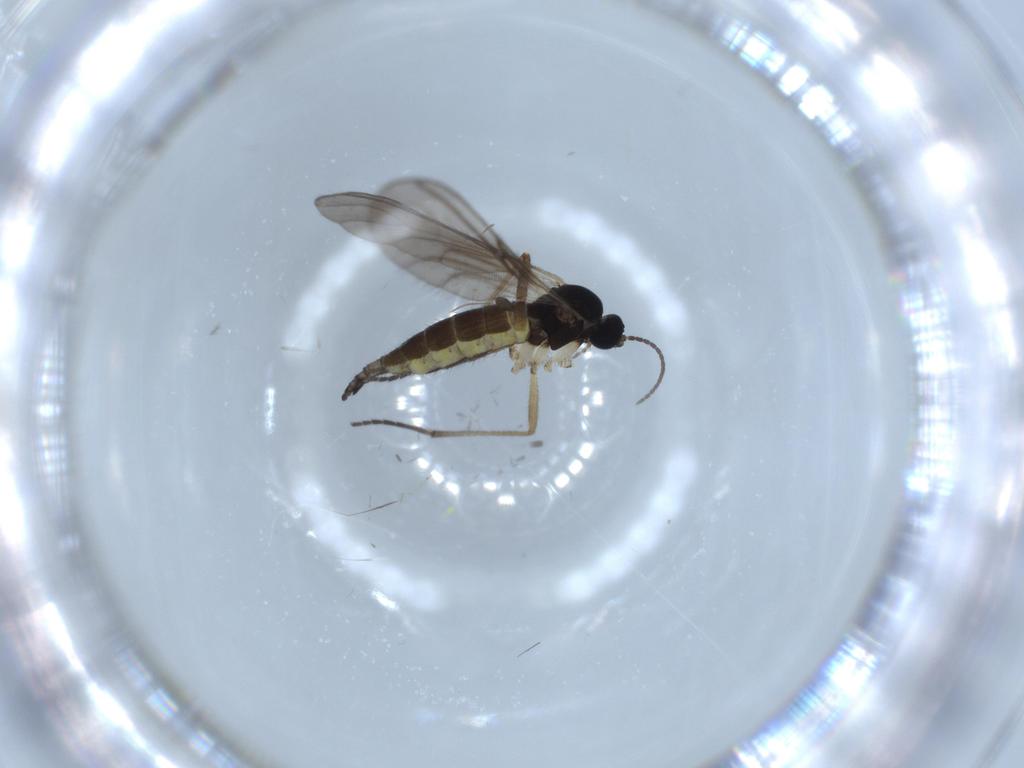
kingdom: Animalia
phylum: Arthropoda
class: Insecta
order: Diptera
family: Sciaridae
